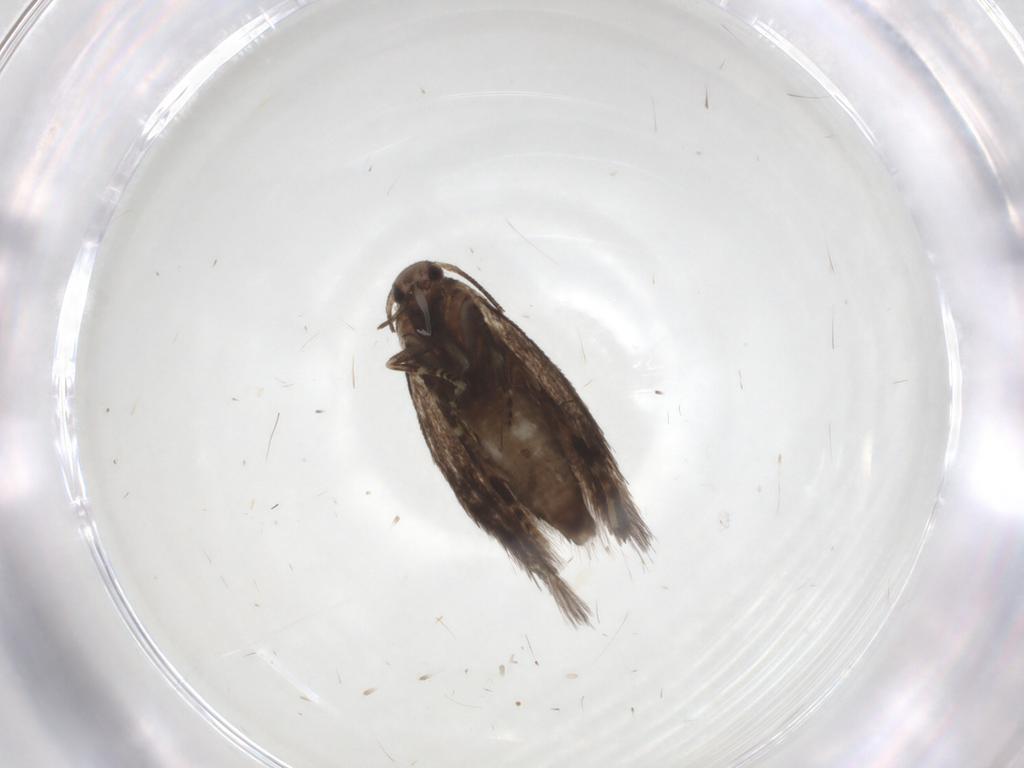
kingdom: Animalia
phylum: Arthropoda
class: Insecta
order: Lepidoptera
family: Elachistidae
